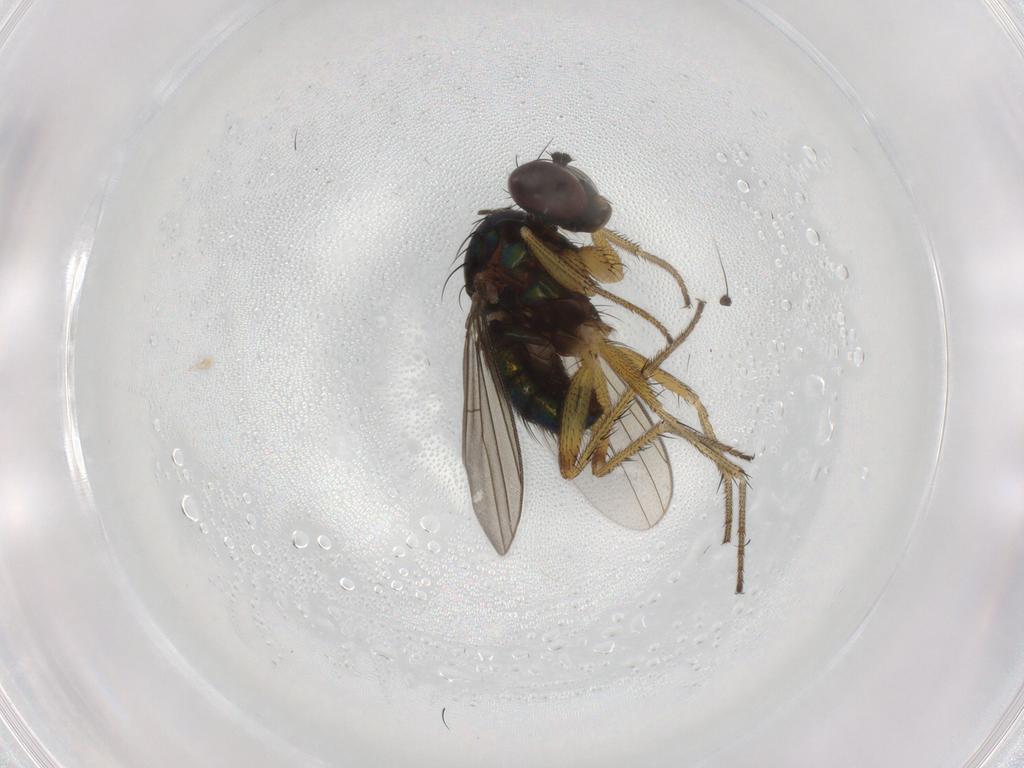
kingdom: Animalia
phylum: Arthropoda
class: Insecta
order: Diptera
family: Dolichopodidae
